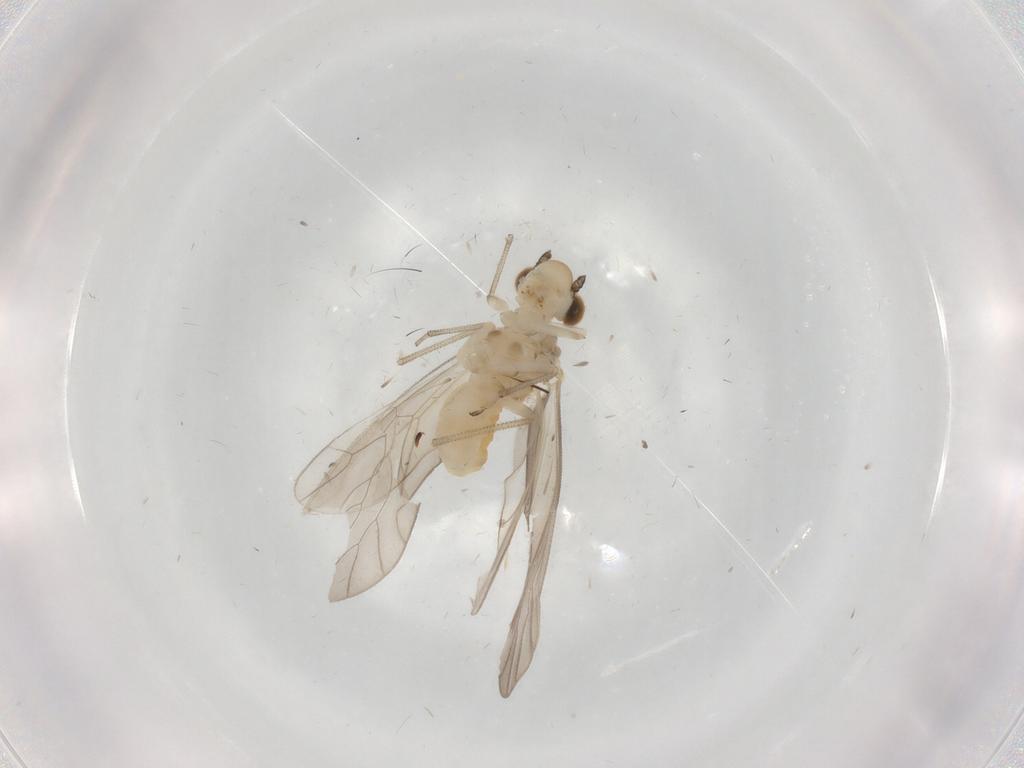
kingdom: Animalia
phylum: Arthropoda
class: Insecta
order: Psocodea
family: Caeciliusidae
